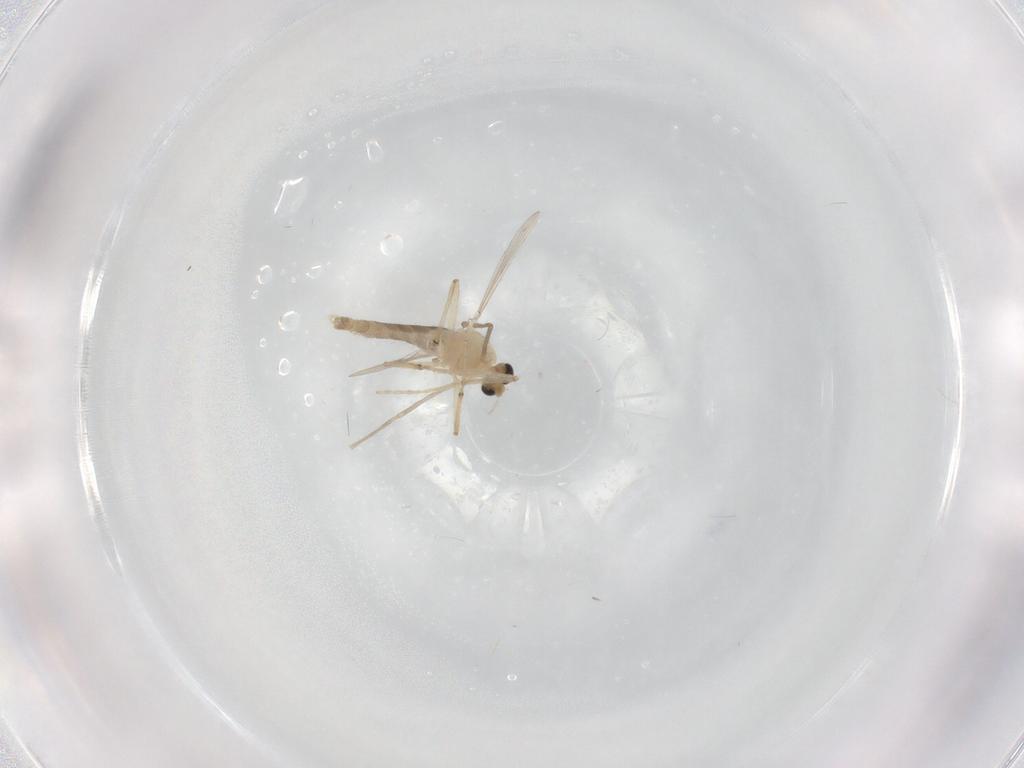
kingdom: Animalia
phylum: Arthropoda
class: Insecta
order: Diptera
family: Chironomidae
